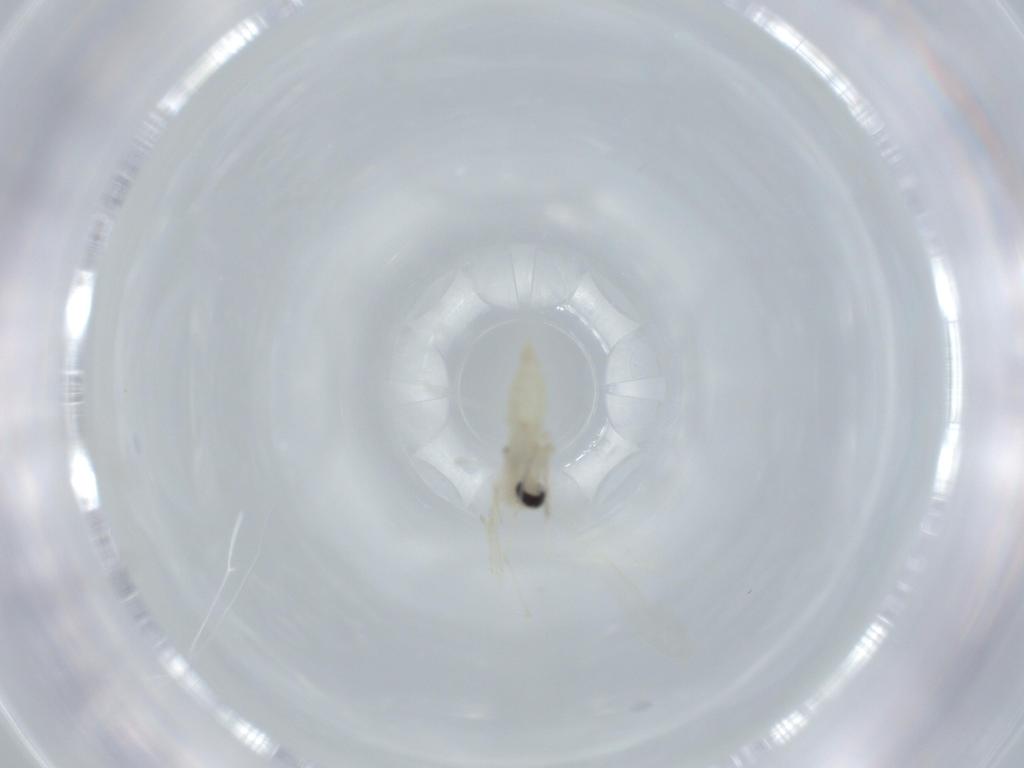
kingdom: Animalia
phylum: Arthropoda
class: Insecta
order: Diptera
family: Cecidomyiidae
